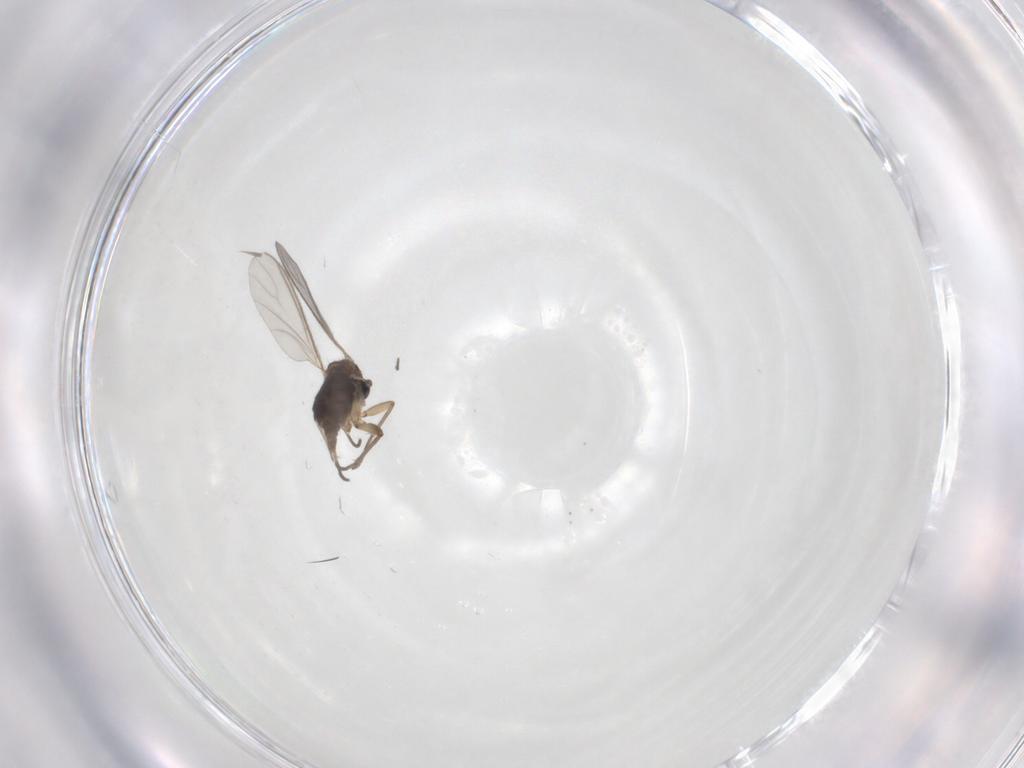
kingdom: Animalia
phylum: Arthropoda
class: Insecta
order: Diptera
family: Sciaridae
